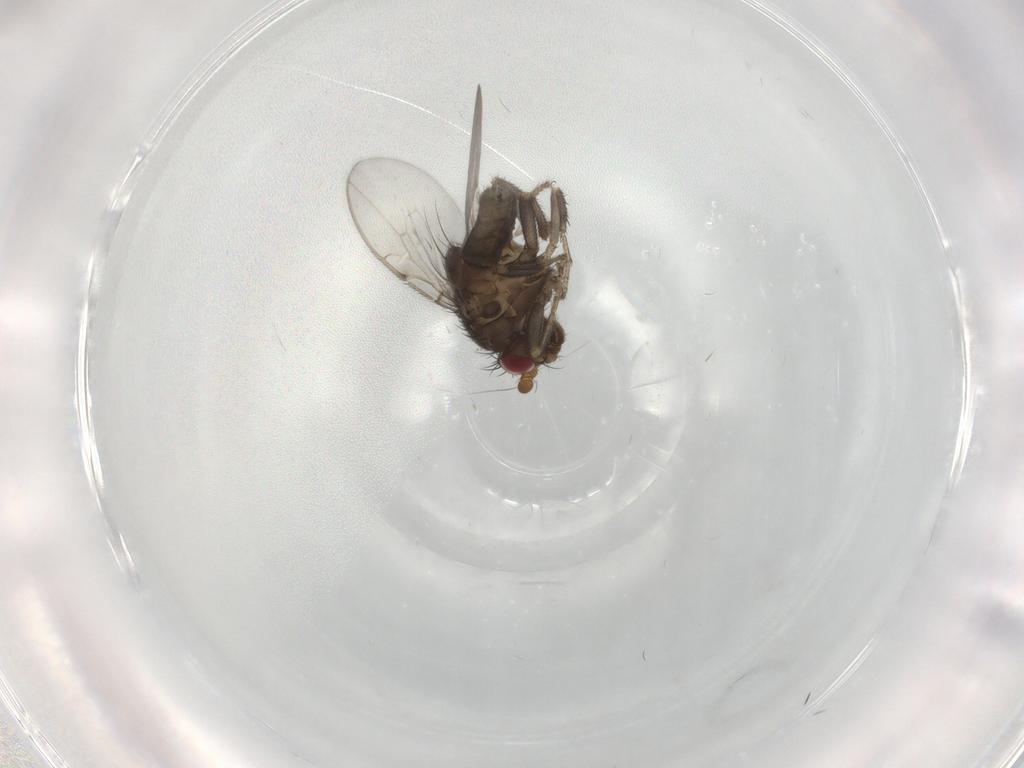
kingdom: Animalia
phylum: Arthropoda
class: Insecta
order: Diptera
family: Sphaeroceridae
